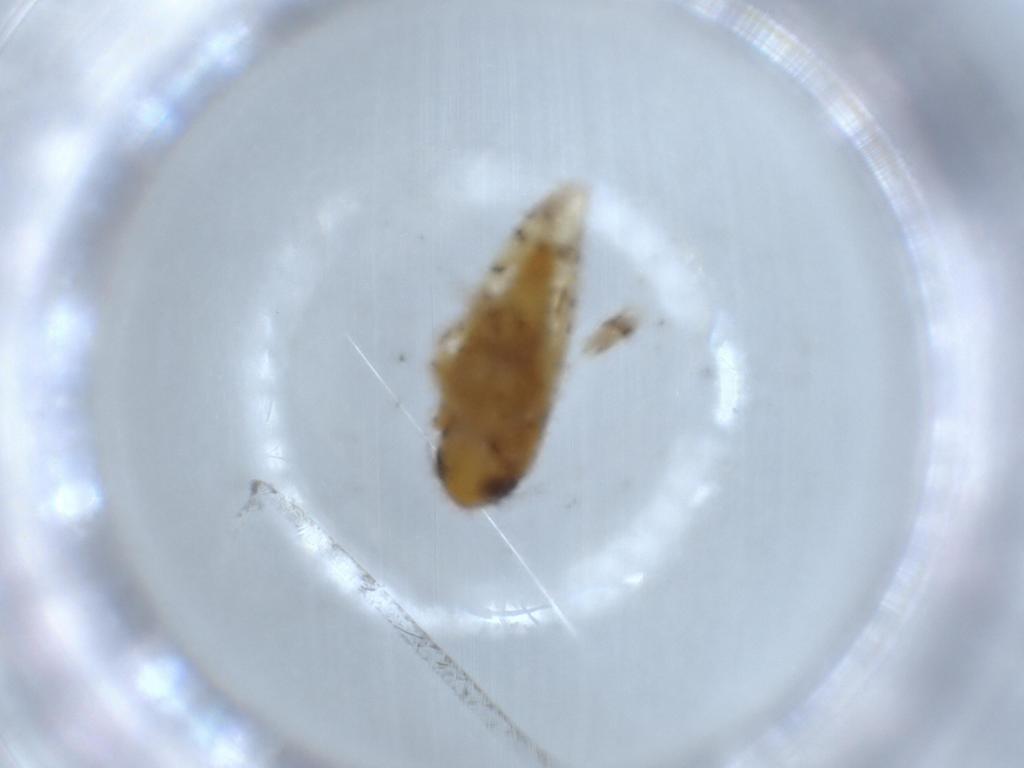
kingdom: Animalia
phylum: Arthropoda
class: Insecta
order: Hemiptera
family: Cicadellidae
